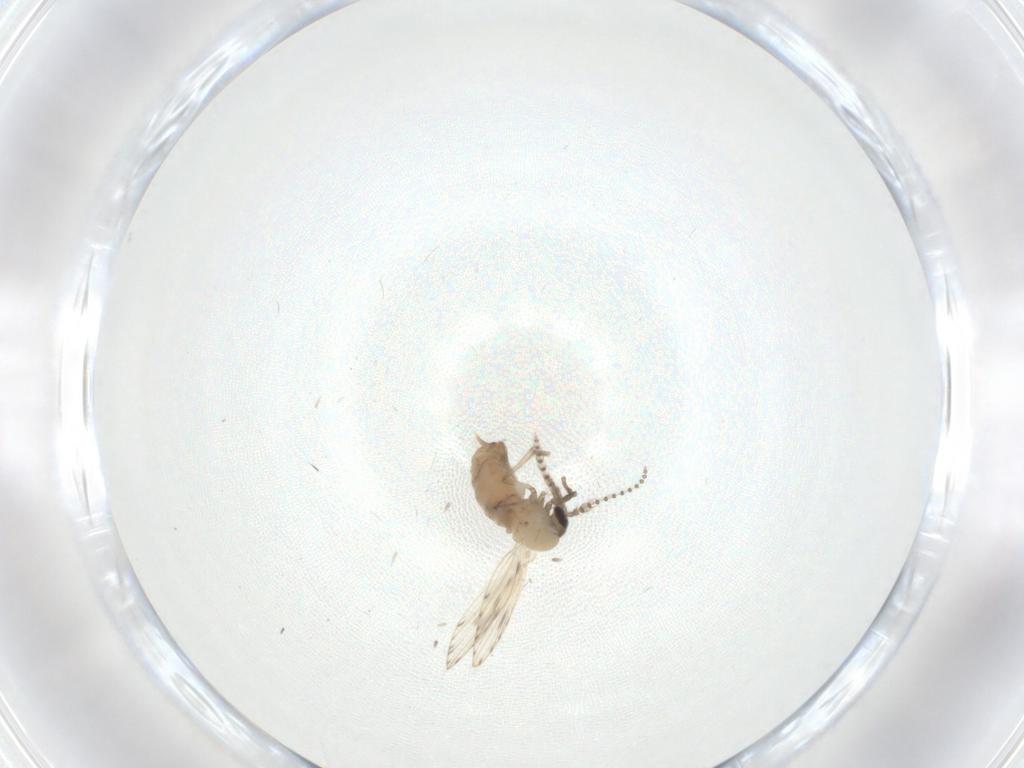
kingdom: Animalia
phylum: Arthropoda
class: Insecta
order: Diptera
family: Psychodidae
